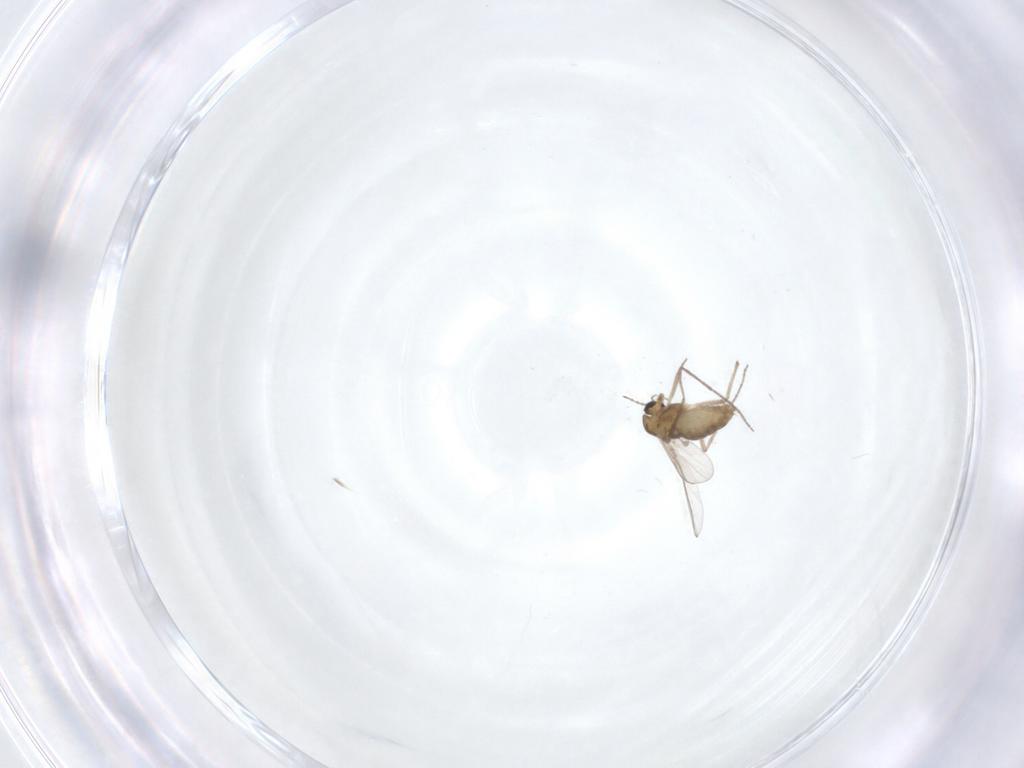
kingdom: Animalia
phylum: Arthropoda
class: Insecta
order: Diptera
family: Chironomidae
